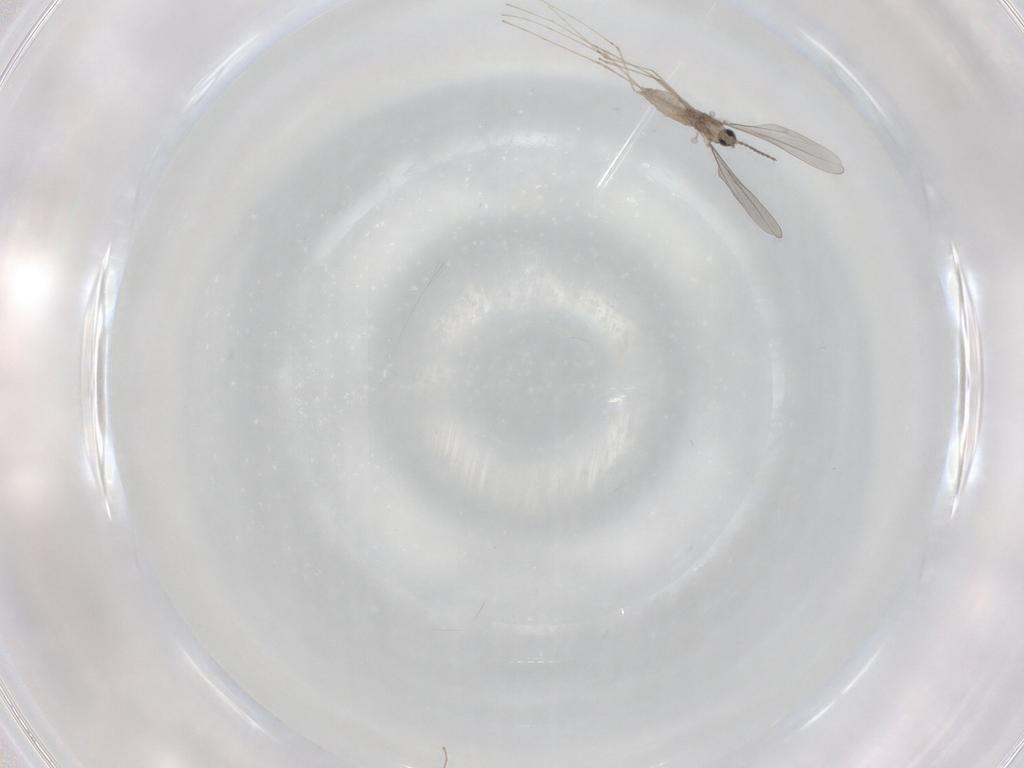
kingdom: Animalia
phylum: Arthropoda
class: Insecta
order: Diptera
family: Cecidomyiidae
